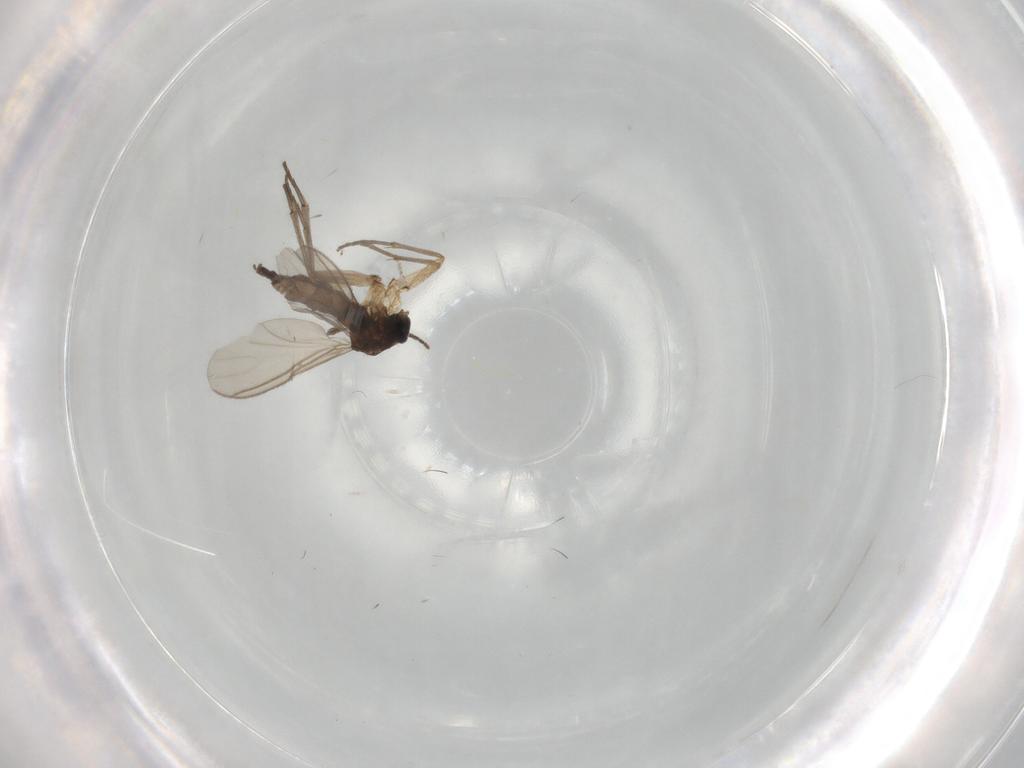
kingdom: Animalia
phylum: Arthropoda
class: Insecta
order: Diptera
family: Sciaridae
